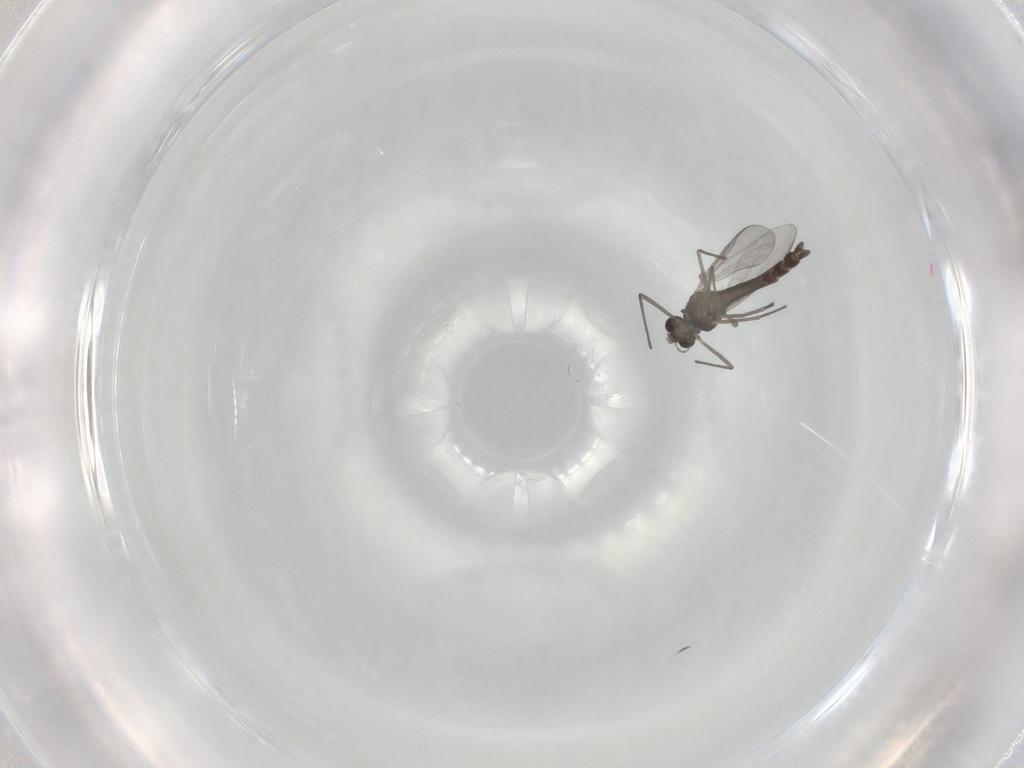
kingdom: Animalia
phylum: Arthropoda
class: Insecta
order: Diptera
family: Chironomidae
